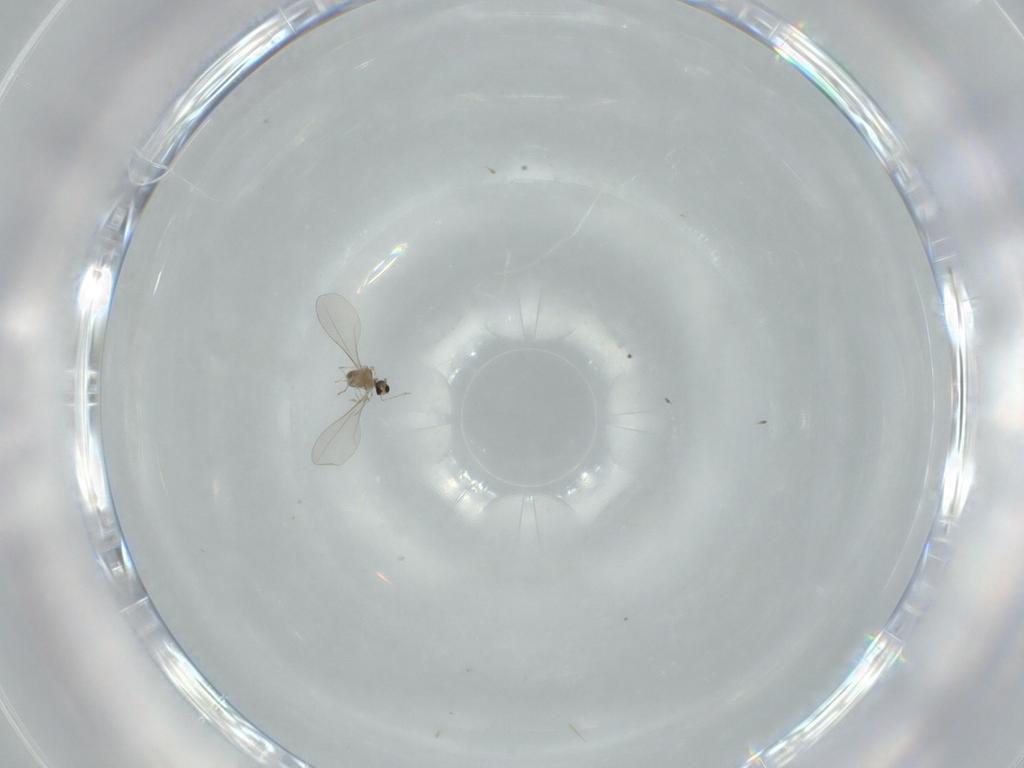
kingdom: Animalia
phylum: Arthropoda
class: Insecta
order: Diptera
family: Cecidomyiidae
